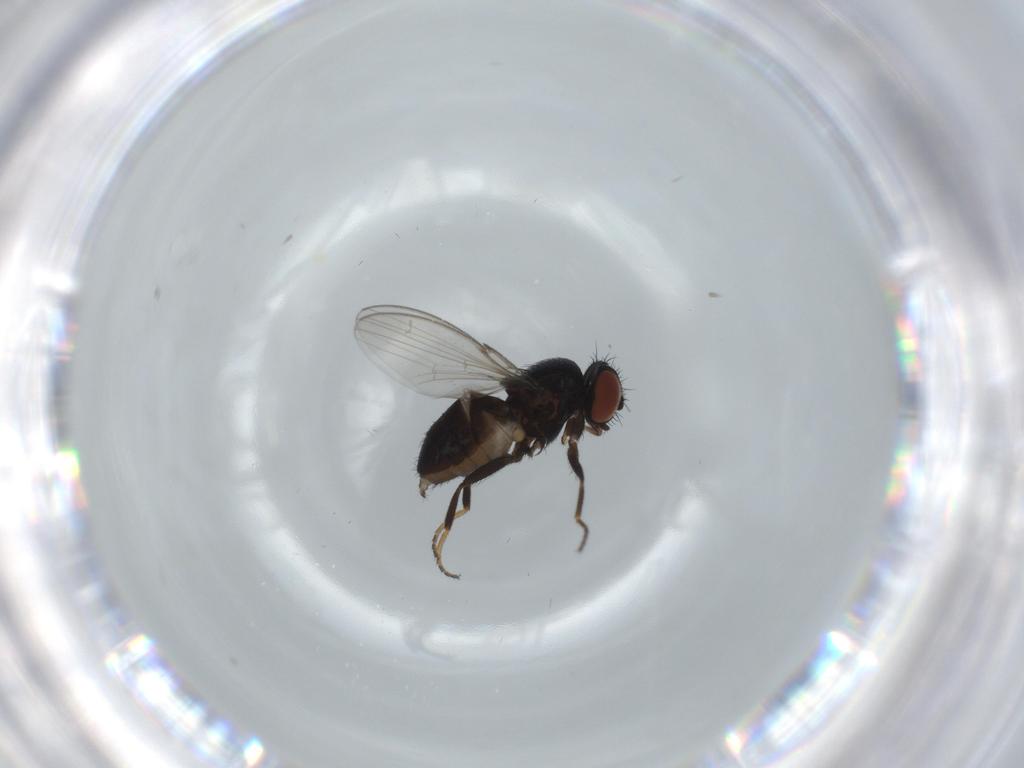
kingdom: Animalia
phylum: Arthropoda
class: Insecta
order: Diptera
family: Milichiidae
